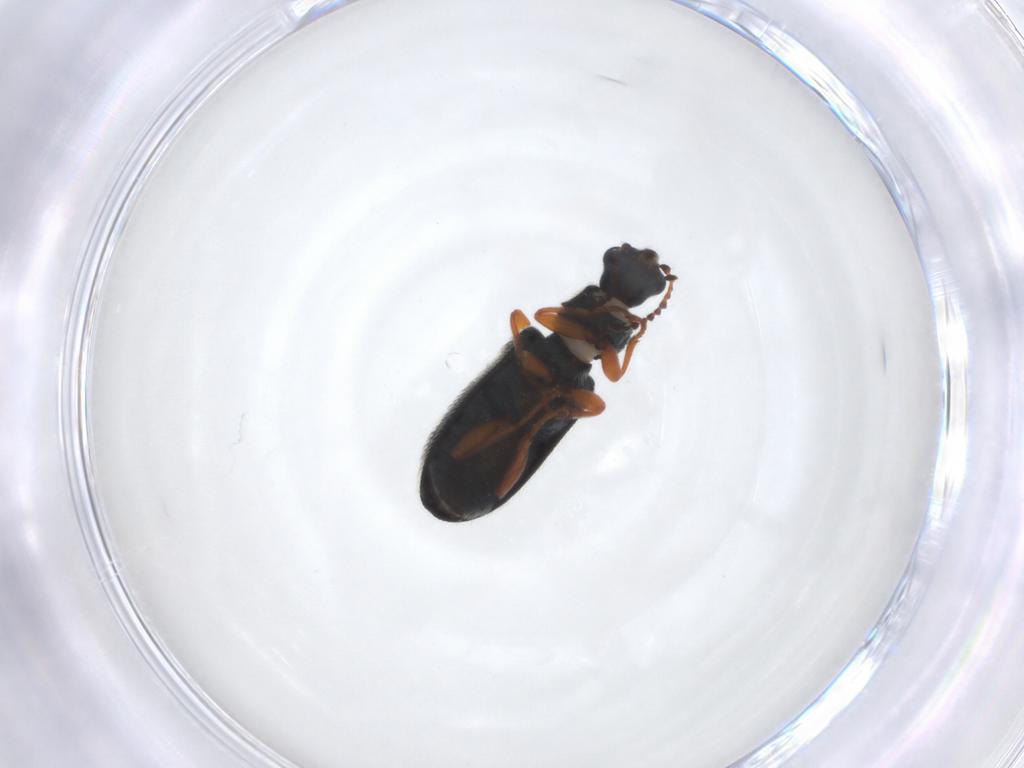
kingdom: Animalia
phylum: Arthropoda
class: Insecta
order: Coleoptera
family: Melyridae
